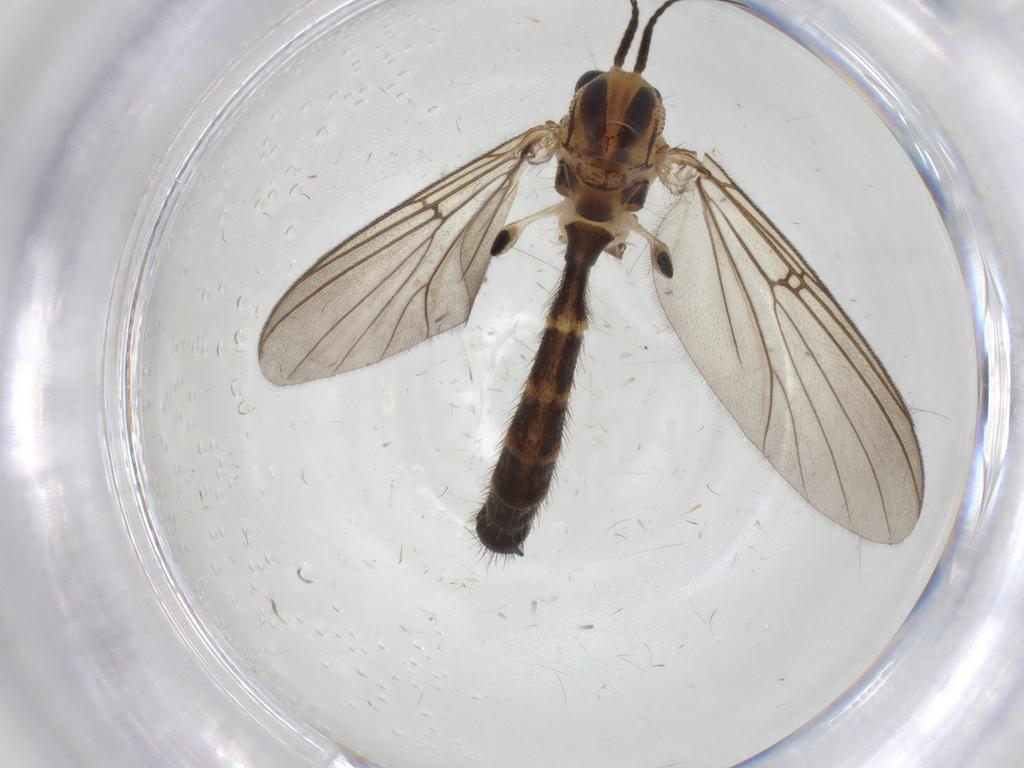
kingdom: Animalia
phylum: Arthropoda
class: Insecta
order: Diptera
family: Mycetophilidae
